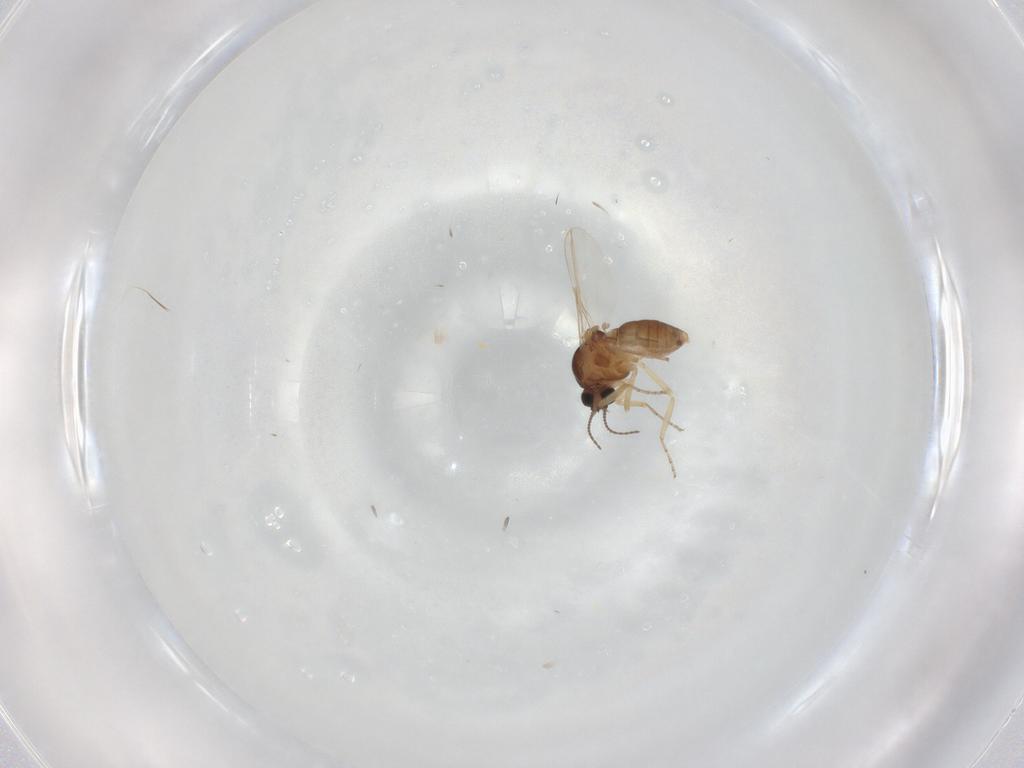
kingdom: Animalia
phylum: Arthropoda
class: Insecta
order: Diptera
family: Ceratopogonidae
